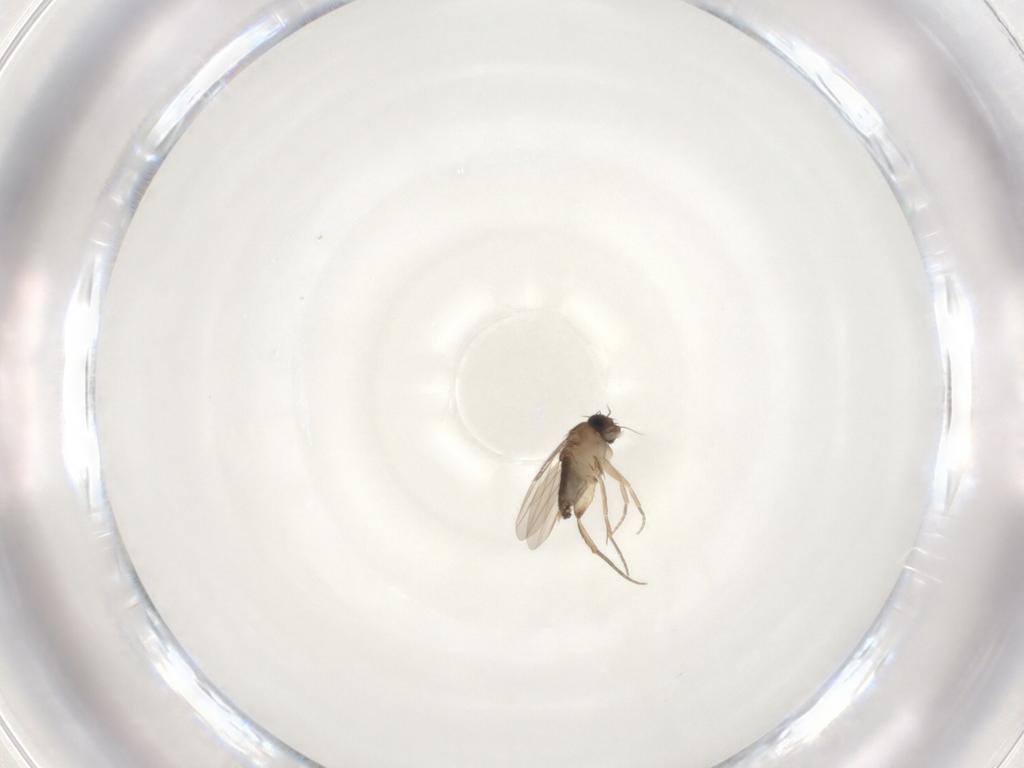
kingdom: Animalia
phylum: Arthropoda
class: Insecta
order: Diptera
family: Phoridae
